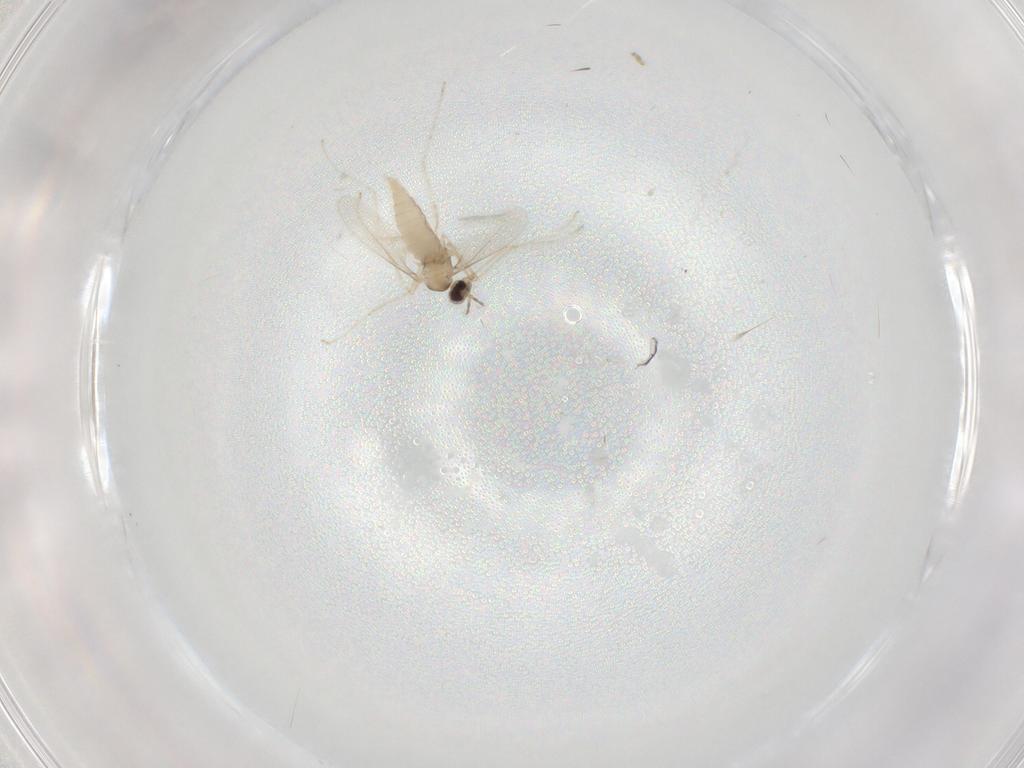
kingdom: Animalia
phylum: Arthropoda
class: Insecta
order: Diptera
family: Cecidomyiidae
